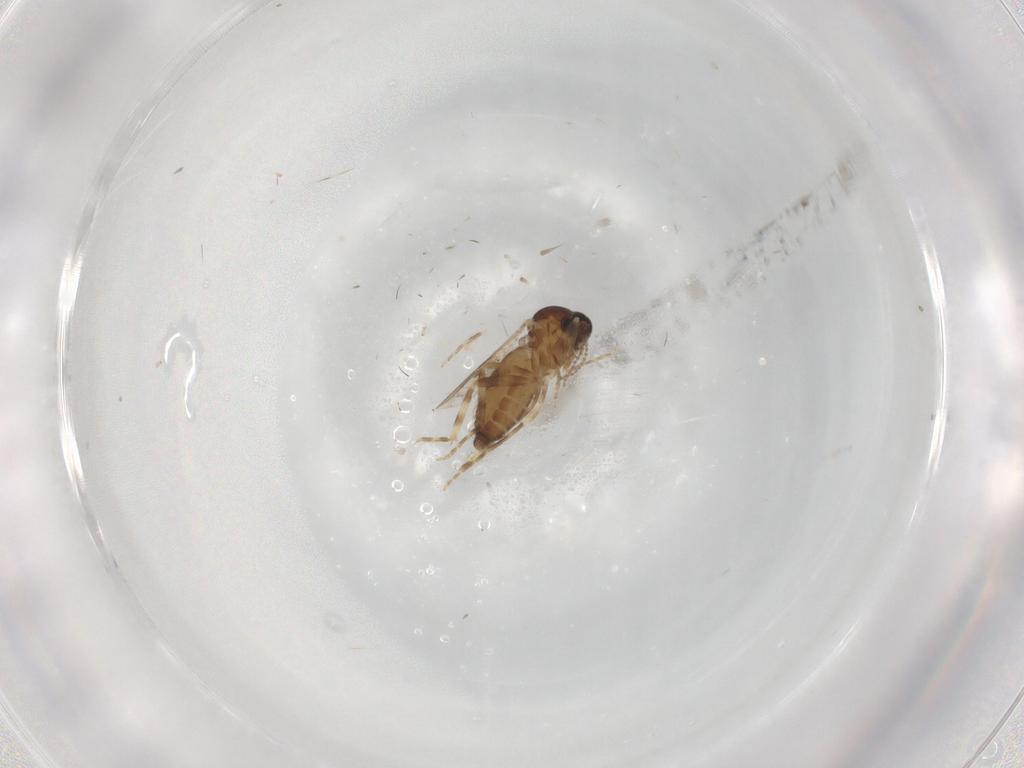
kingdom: Animalia
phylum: Arthropoda
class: Insecta
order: Diptera
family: Ceratopogonidae
